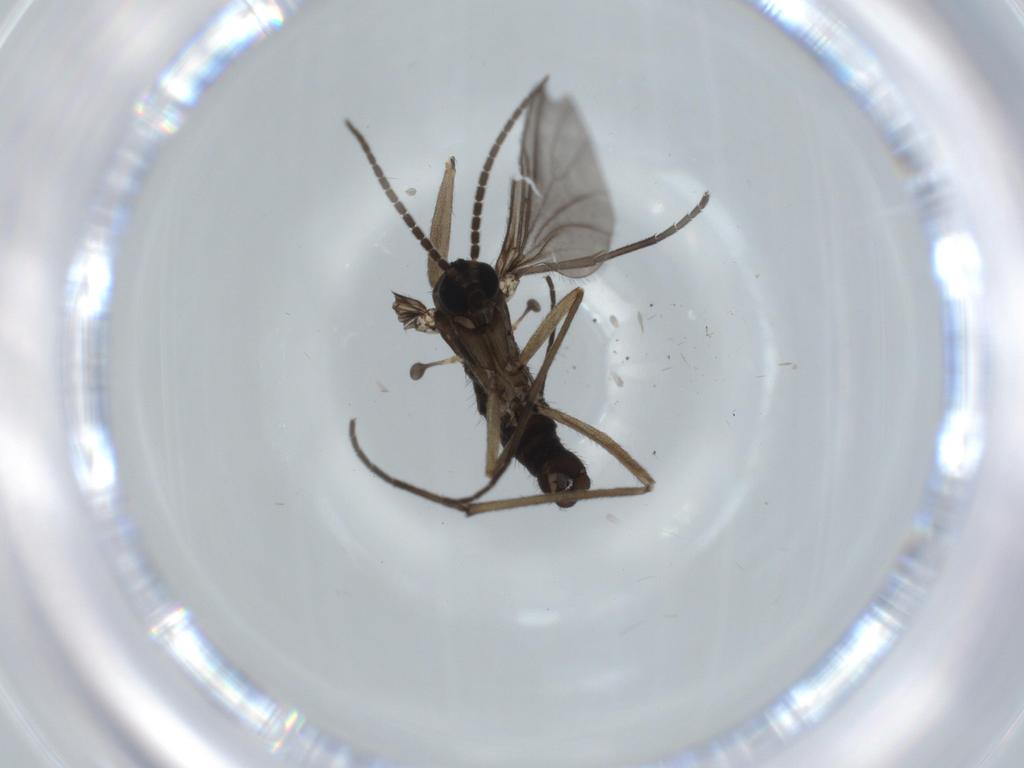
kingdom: Animalia
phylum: Arthropoda
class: Insecta
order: Diptera
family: Sciaridae
